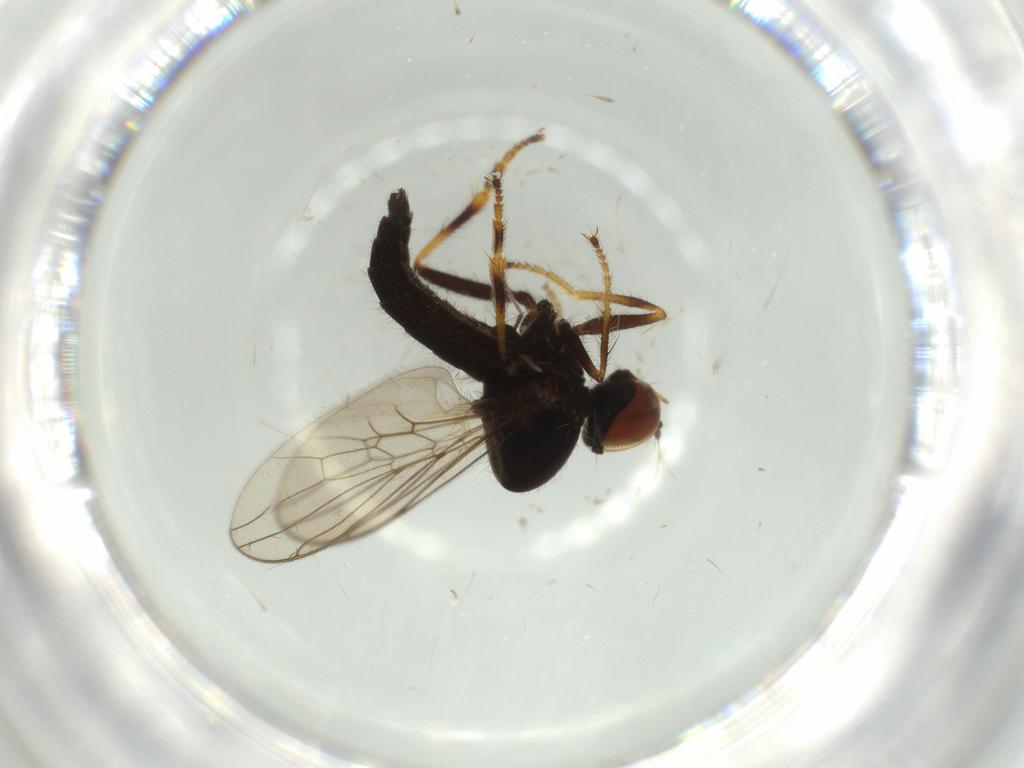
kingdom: Animalia
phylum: Arthropoda
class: Insecta
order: Diptera
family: Hybotidae
